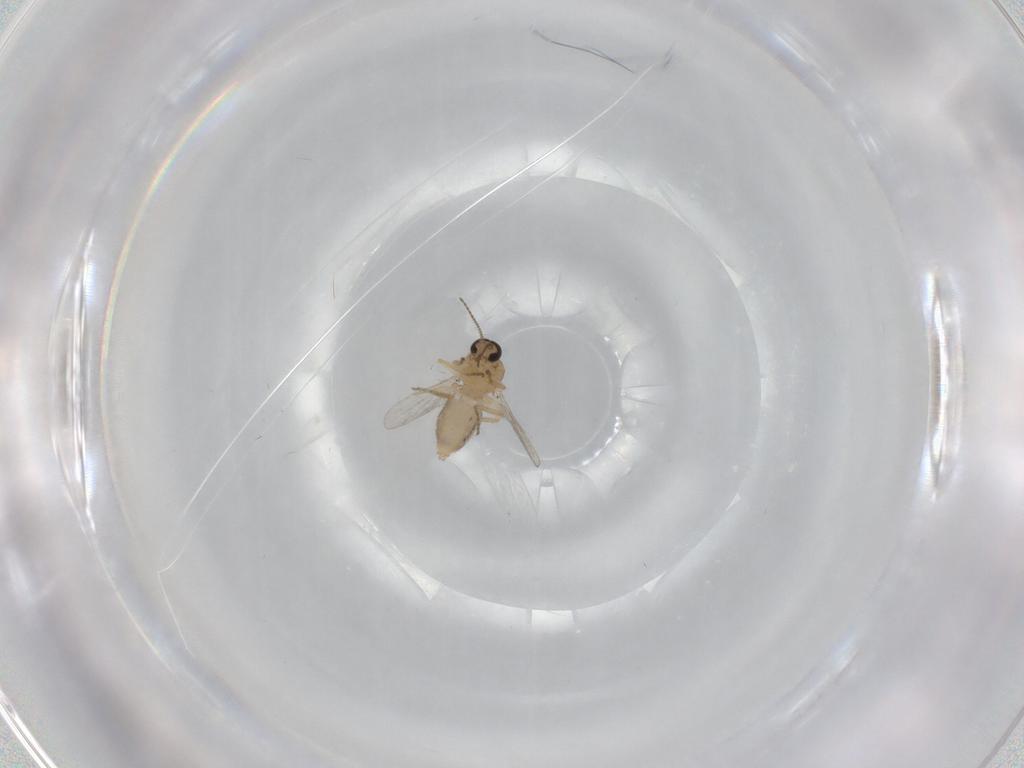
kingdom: Animalia
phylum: Arthropoda
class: Insecta
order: Diptera
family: Ceratopogonidae
